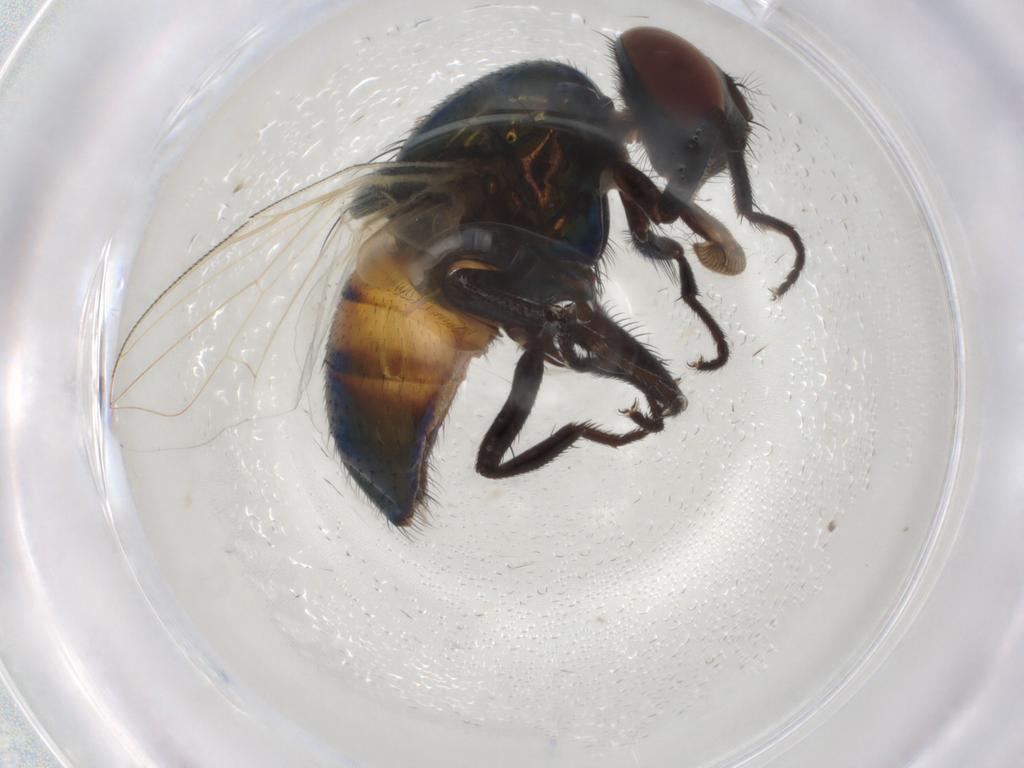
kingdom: Animalia
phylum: Arthropoda
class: Insecta
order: Diptera
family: Muscidae
